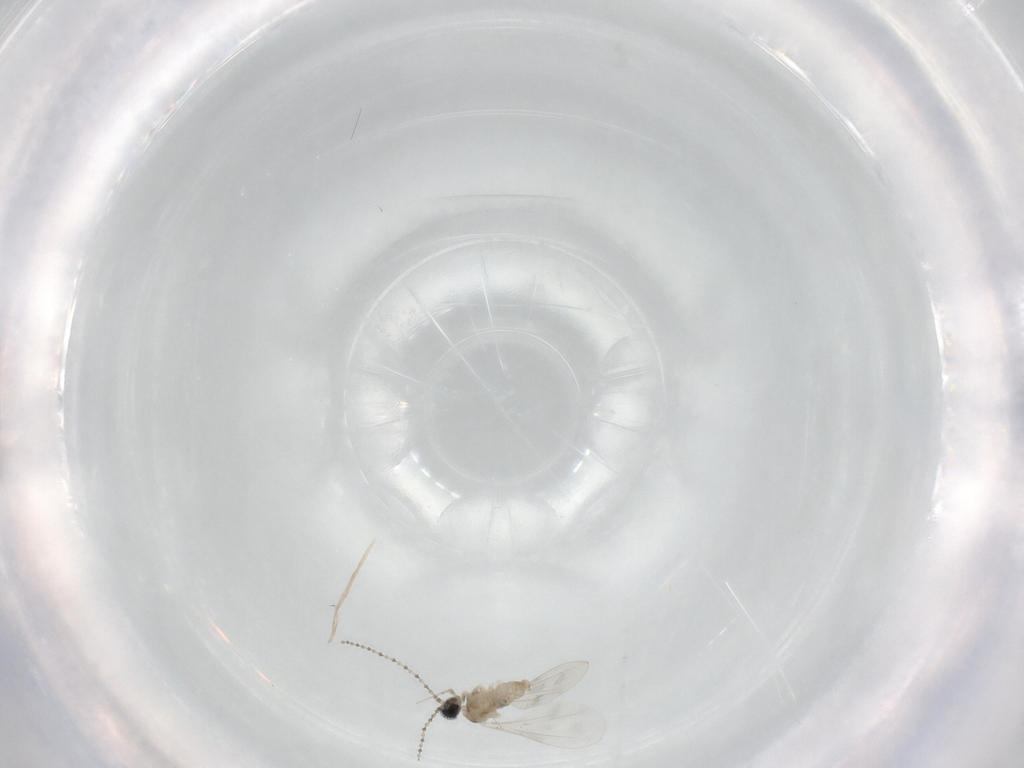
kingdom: Animalia
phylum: Arthropoda
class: Insecta
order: Diptera
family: Cecidomyiidae
